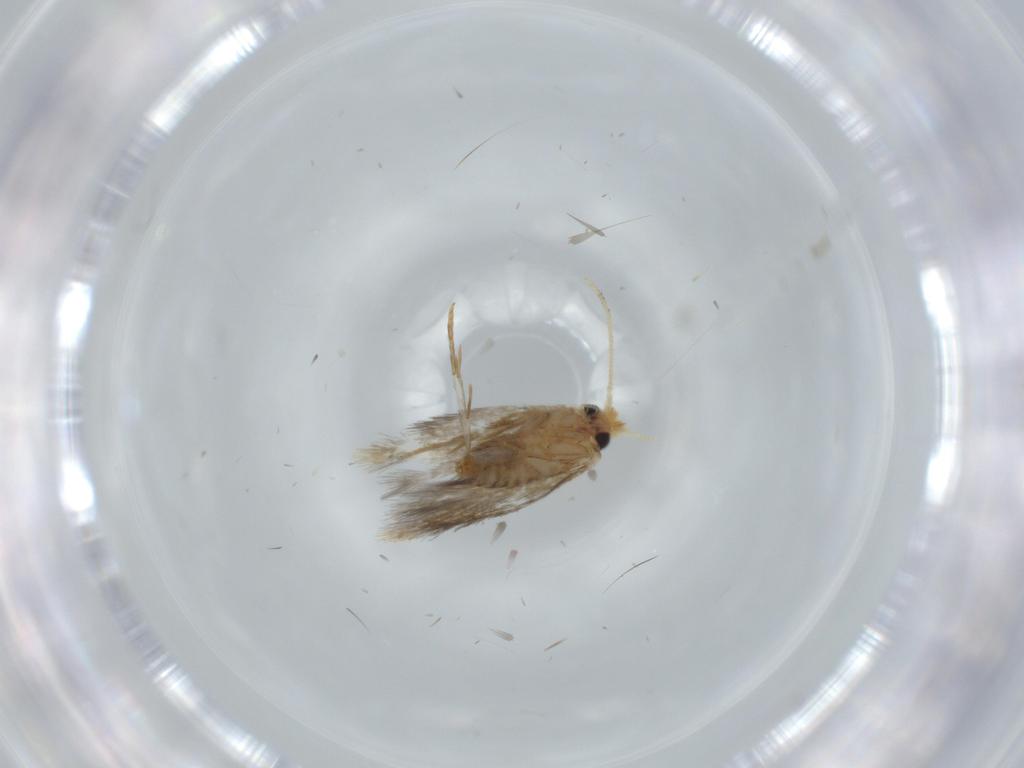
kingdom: Animalia
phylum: Arthropoda
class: Insecta
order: Lepidoptera
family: Nepticulidae
